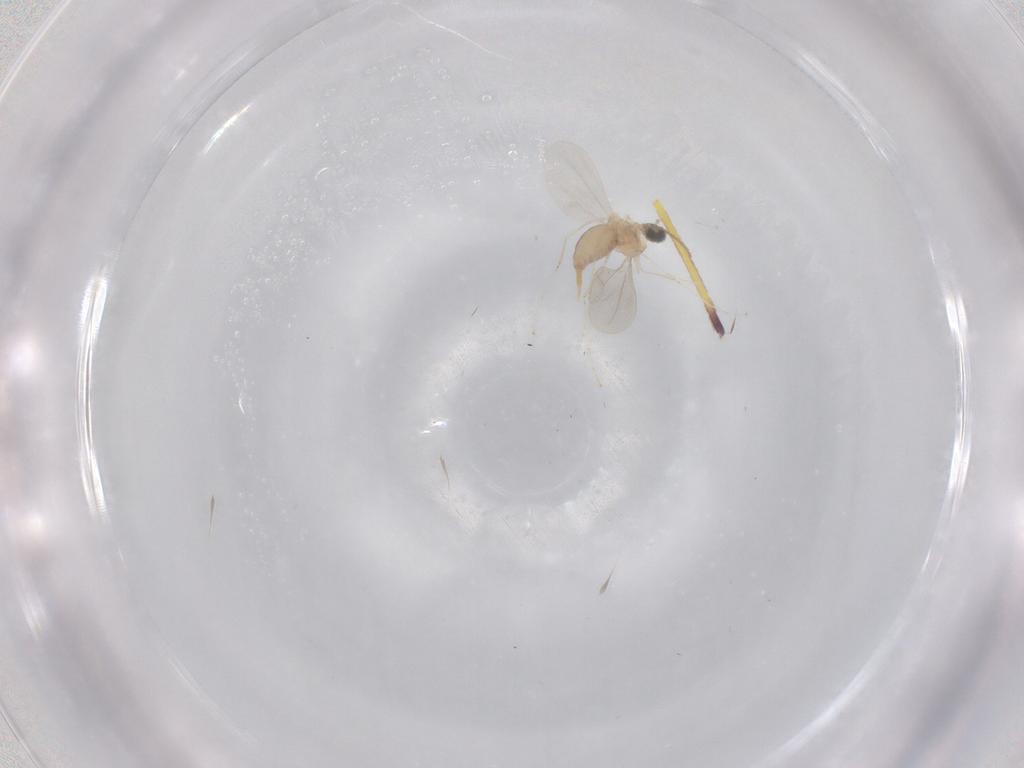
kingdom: Animalia
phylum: Arthropoda
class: Insecta
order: Diptera
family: Cecidomyiidae
